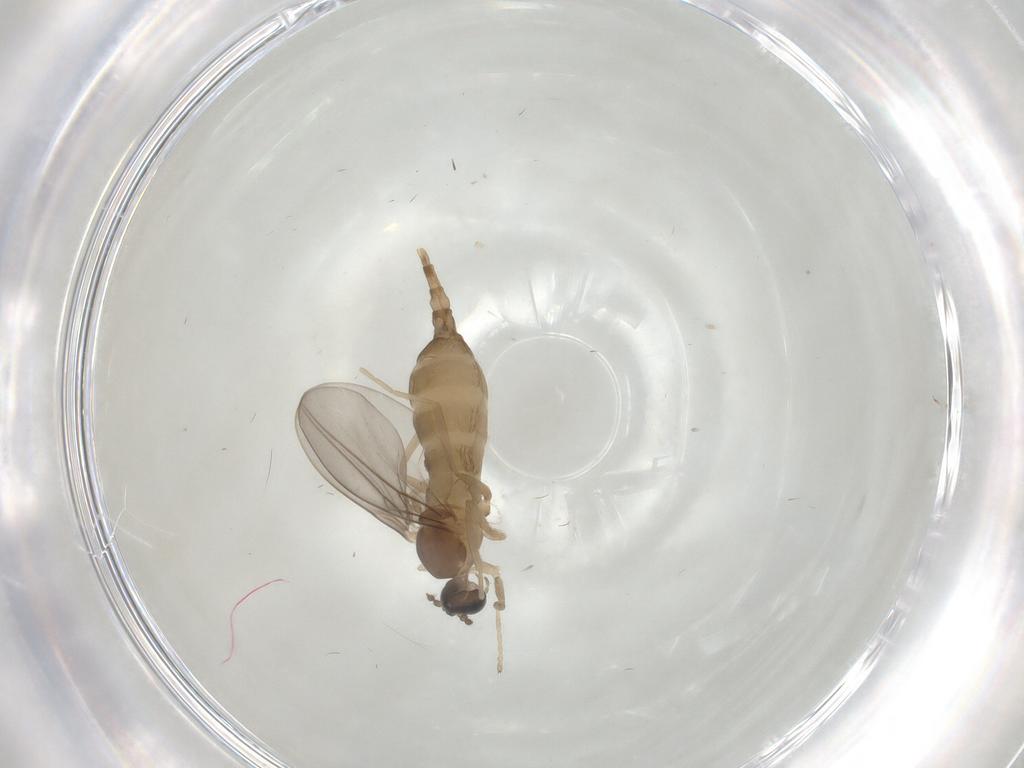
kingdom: Animalia
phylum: Arthropoda
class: Insecta
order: Diptera
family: Cecidomyiidae
